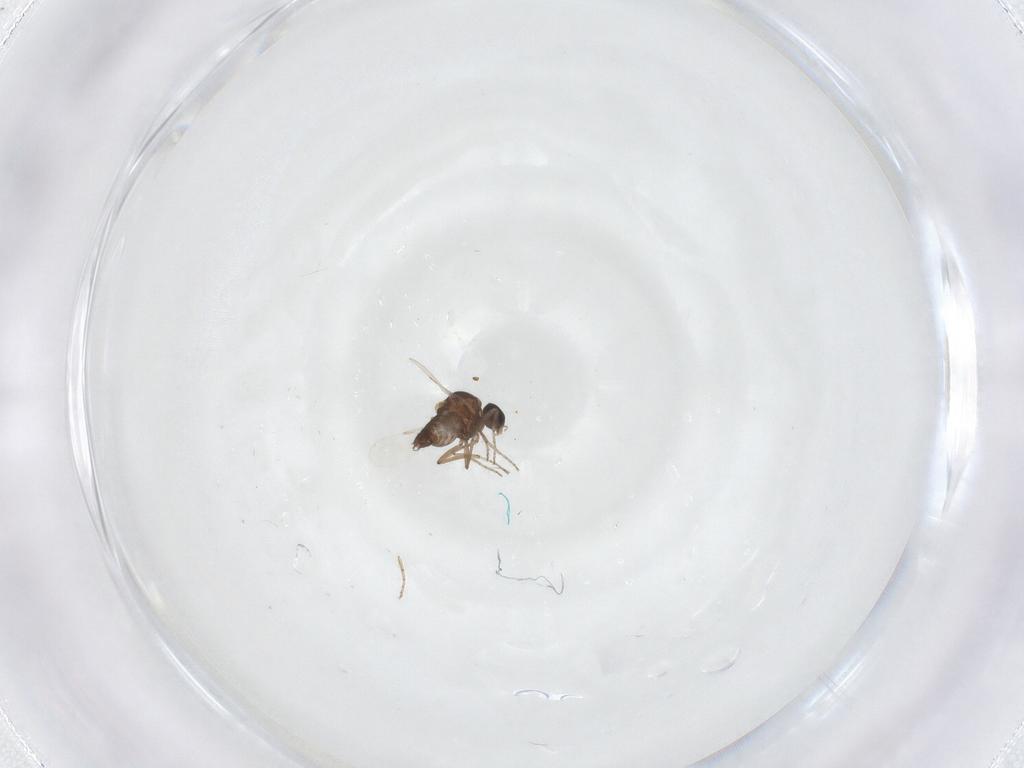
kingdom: Animalia
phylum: Arthropoda
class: Insecta
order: Diptera
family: Ceratopogonidae
